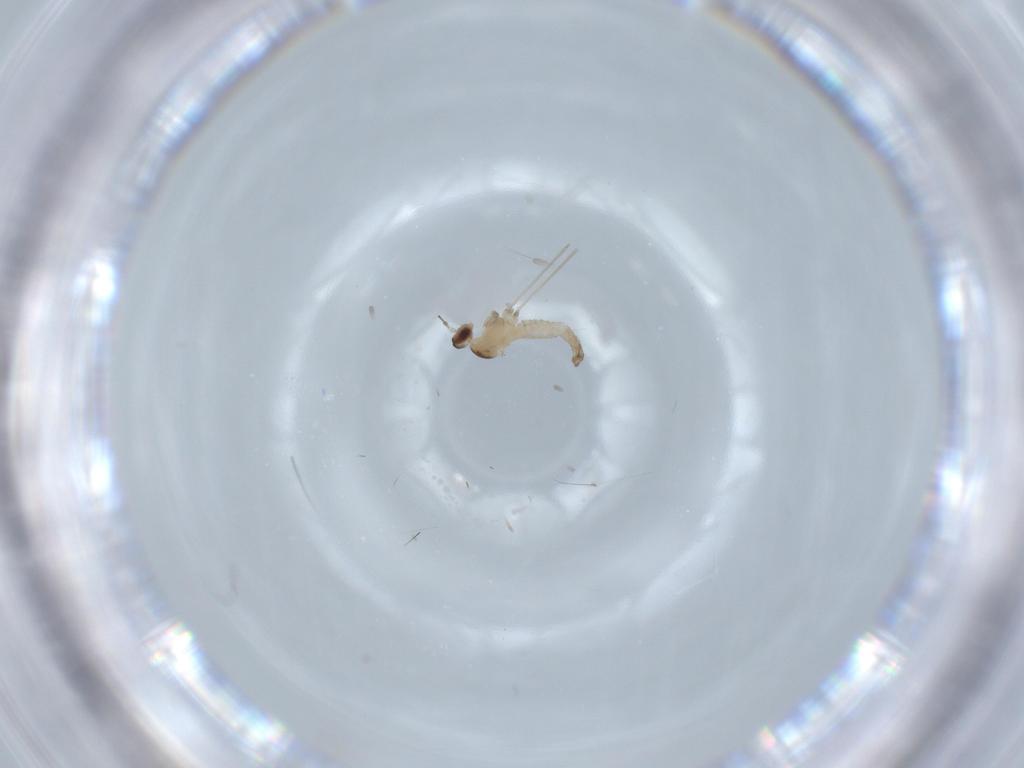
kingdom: Animalia
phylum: Arthropoda
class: Insecta
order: Diptera
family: Cecidomyiidae
